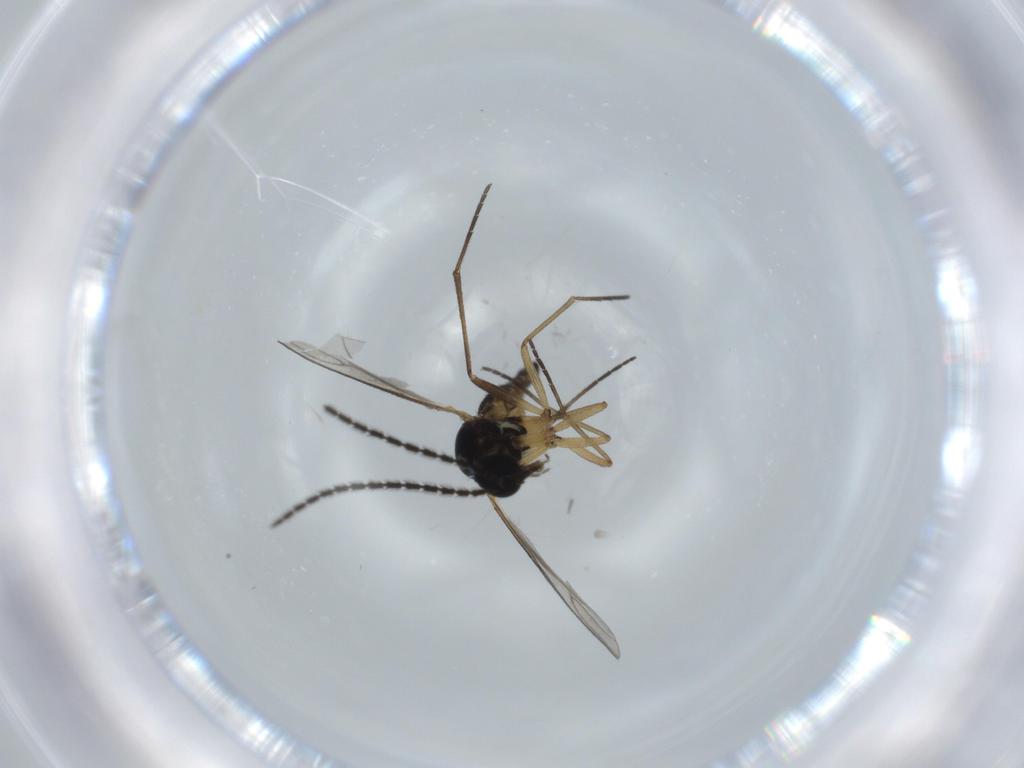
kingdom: Animalia
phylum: Arthropoda
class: Insecta
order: Diptera
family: Sciaridae
